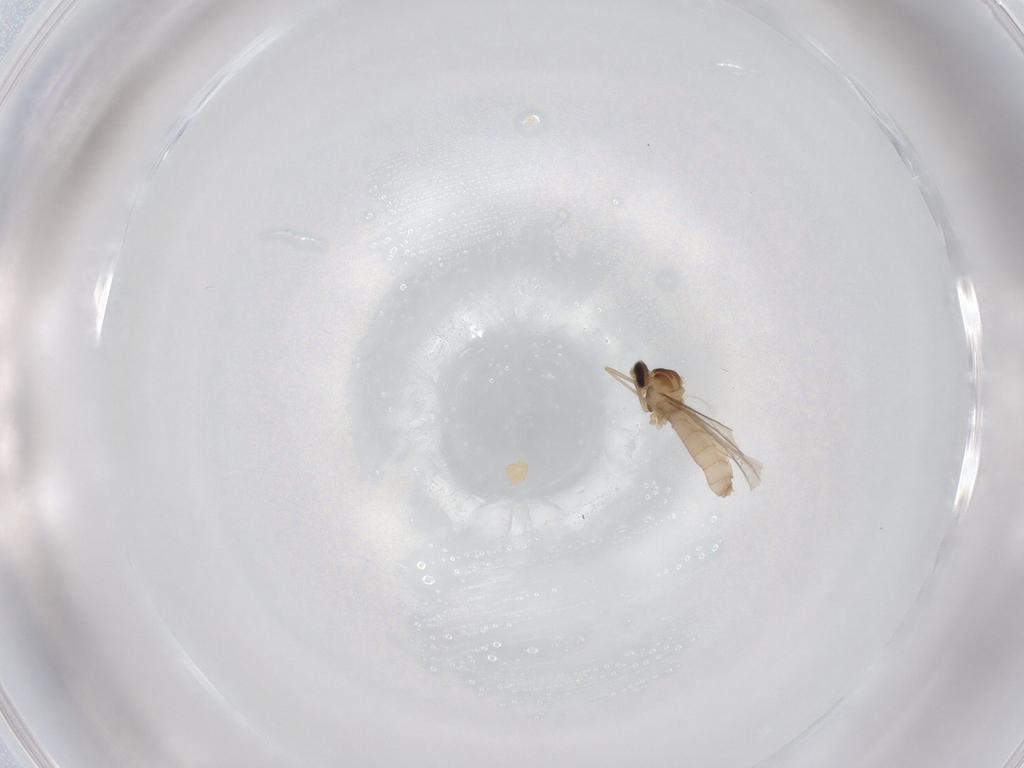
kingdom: Animalia
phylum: Arthropoda
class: Insecta
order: Diptera
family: Cecidomyiidae
